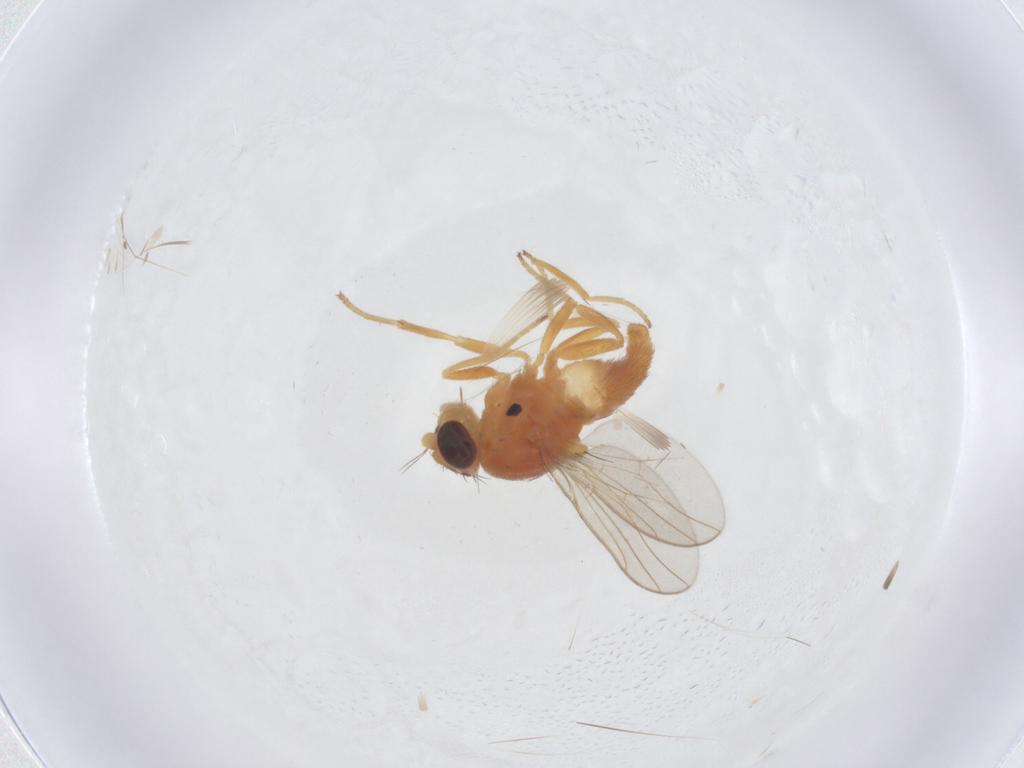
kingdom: Animalia
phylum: Arthropoda
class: Insecta
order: Diptera
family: Chloropidae
